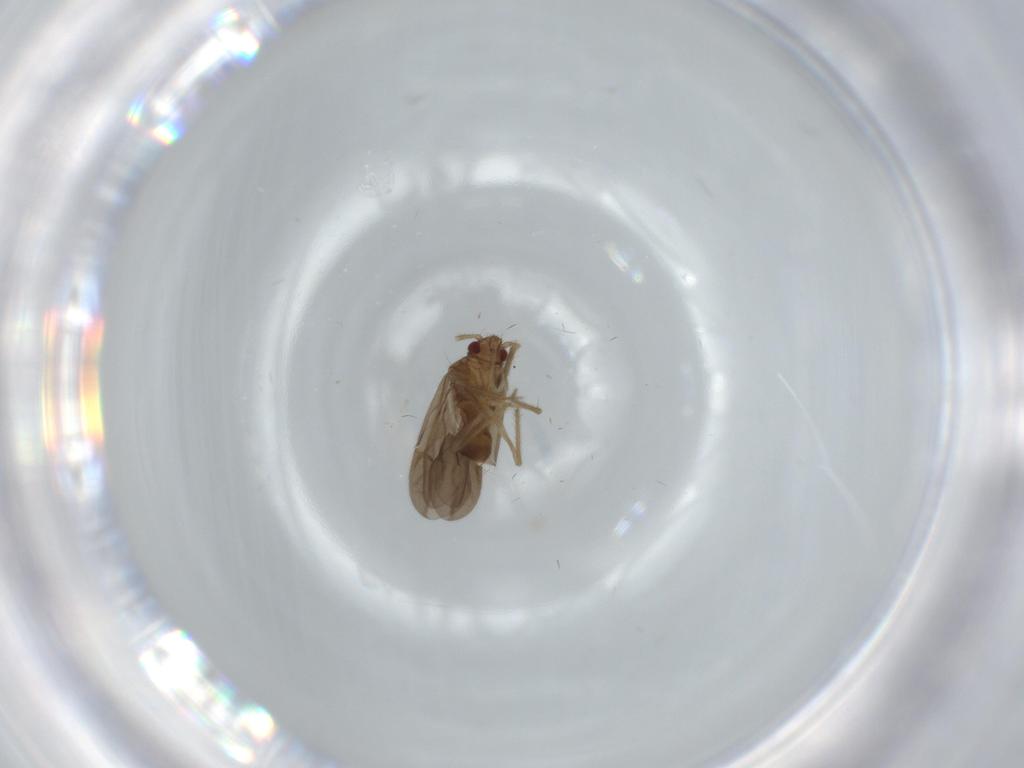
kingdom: Animalia
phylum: Arthropoda
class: Insecta
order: Hemiptera
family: Ceratocombidae
